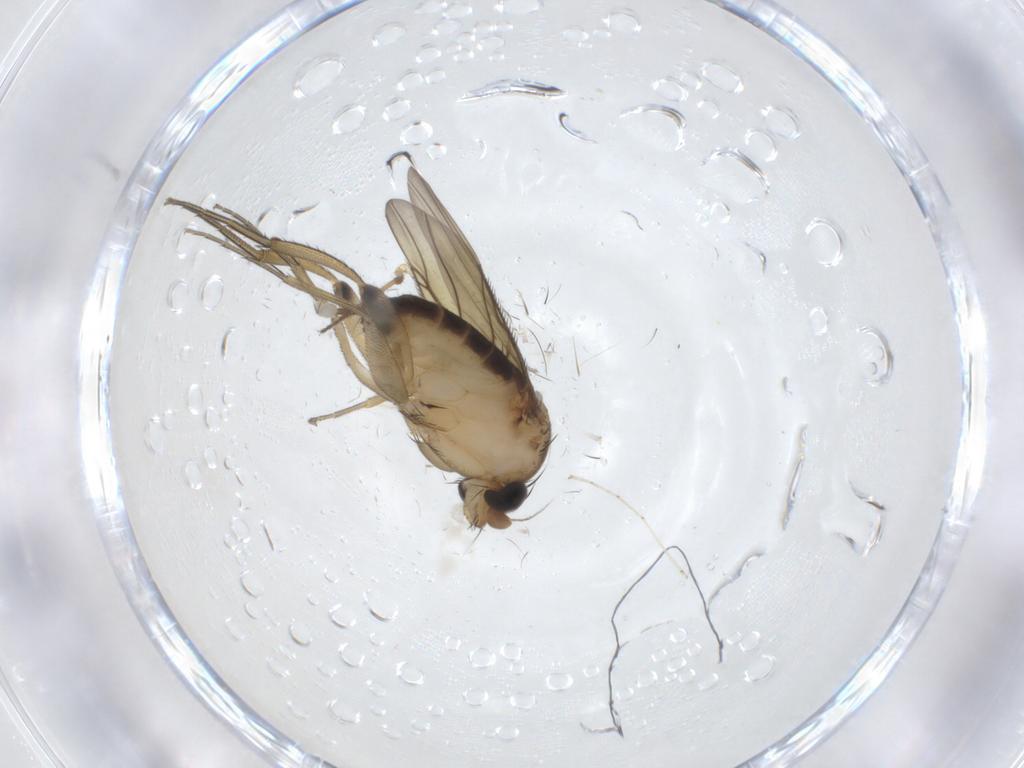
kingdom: Animalia
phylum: Arthropoda
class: Insecta
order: Diptera
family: Phoridae
